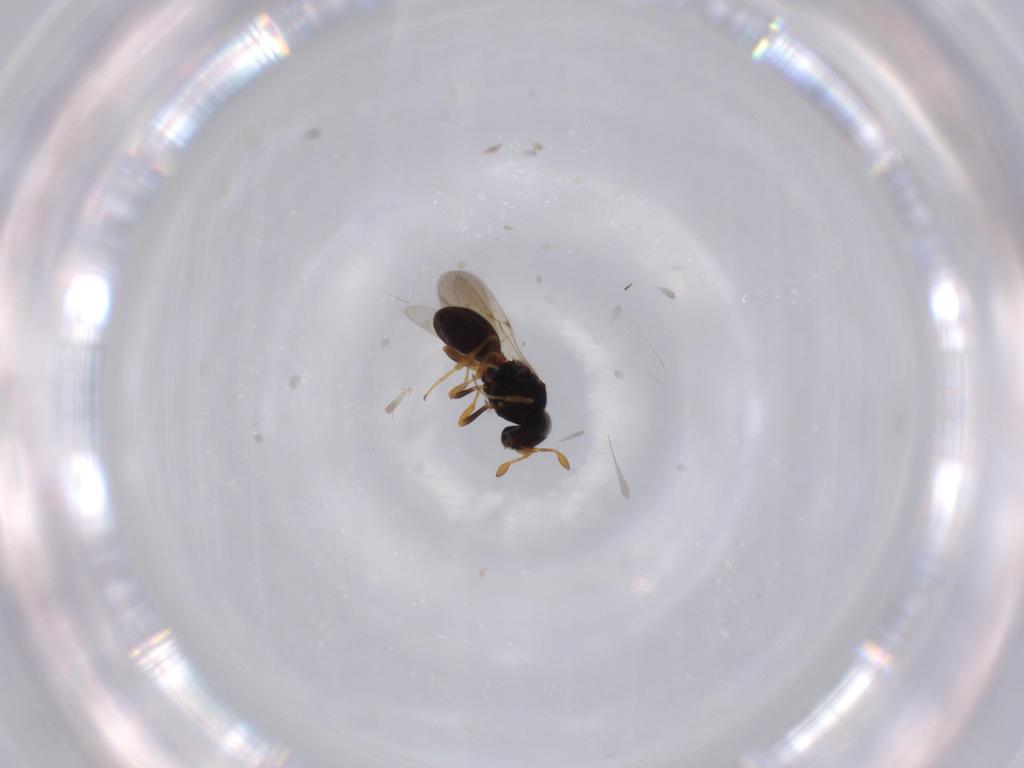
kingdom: Animalia
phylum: Arthropoda
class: Insecta
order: Hymenoptera
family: Scelionidae
